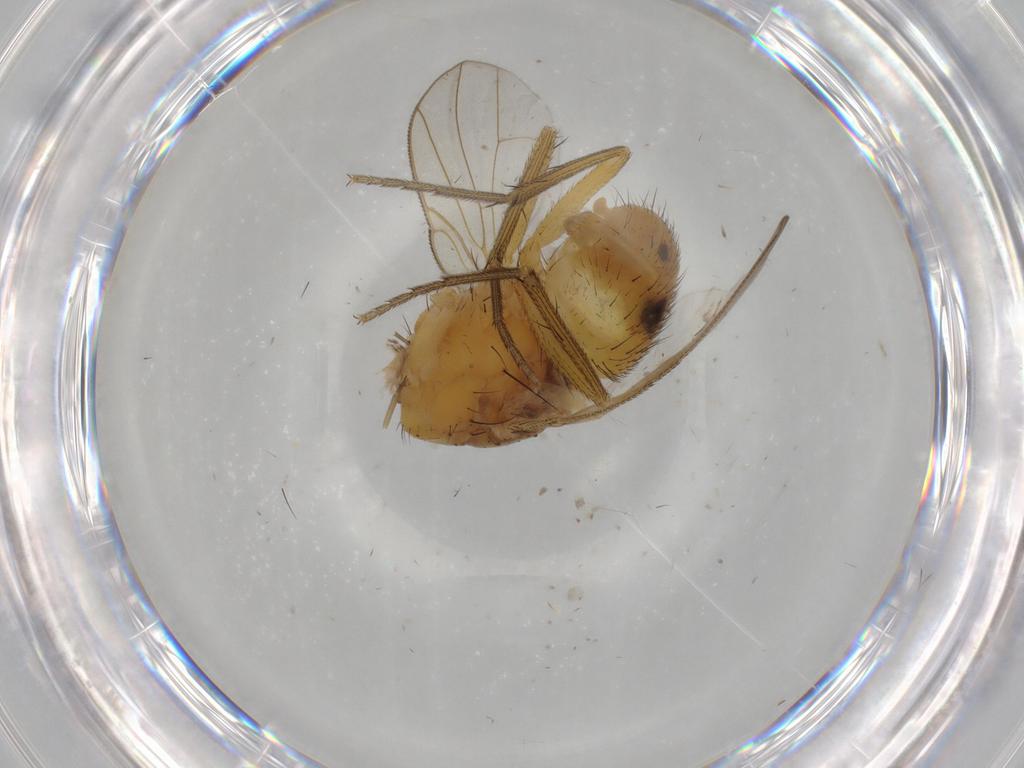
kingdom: Animalia
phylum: Arthropoda
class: Insecta
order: Diptera
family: Muscidae
